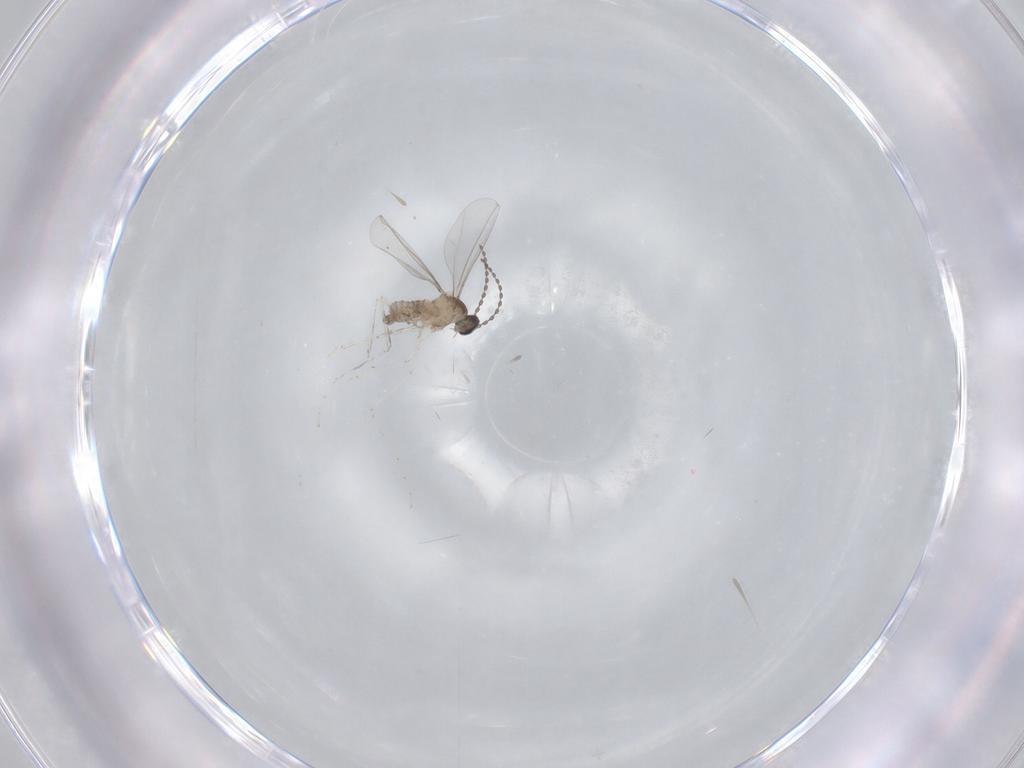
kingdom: Animalia
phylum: Arthropoda
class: Insecta
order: Diptera
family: Cecidomyiidae
